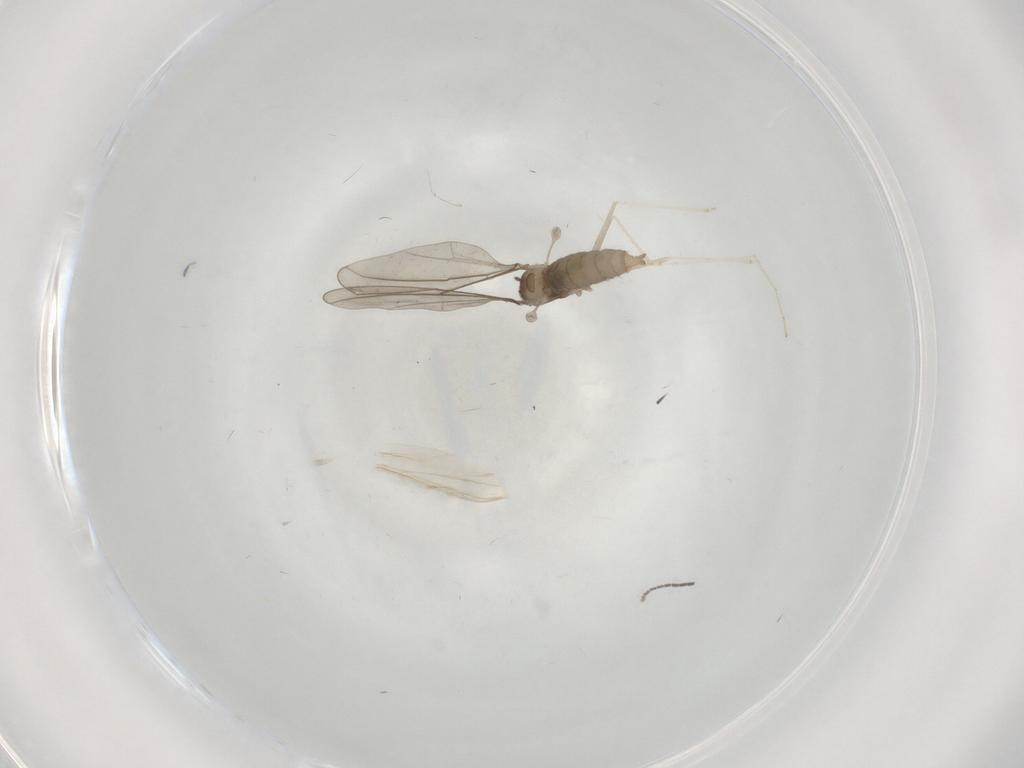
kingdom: Animalia
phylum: Arthropoda
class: Insecta
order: Diptera
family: Cecidomyiidae
